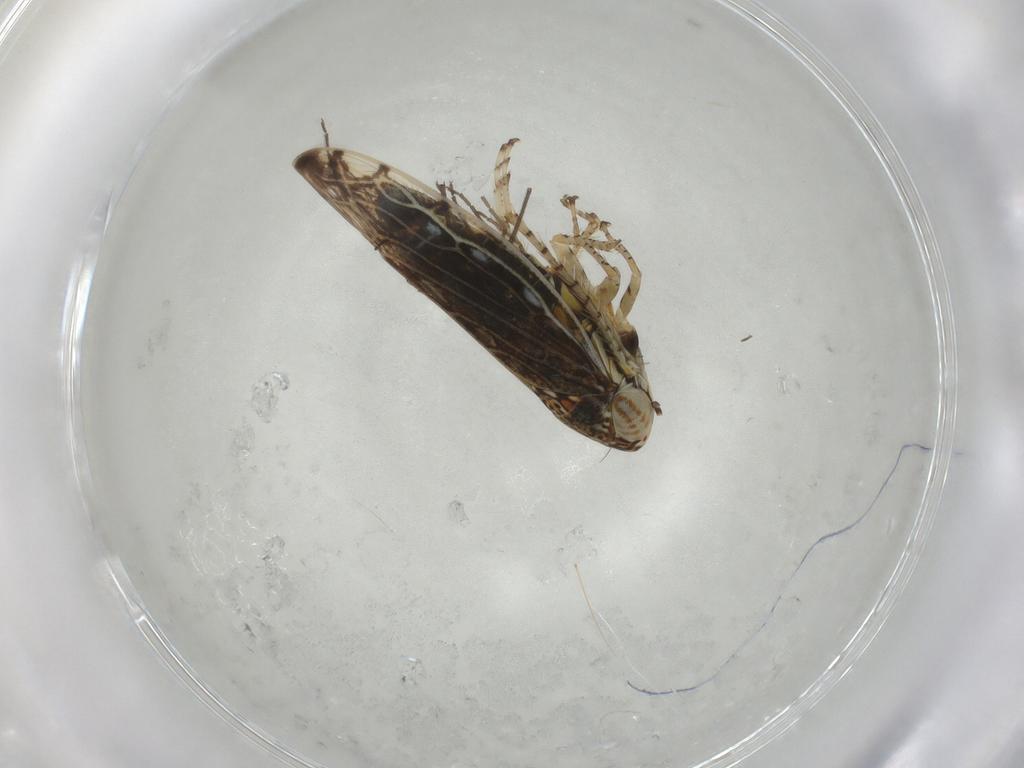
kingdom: Animalia
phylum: Arthropoda
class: Insecta
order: Hemiptera
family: Cicadellidae
